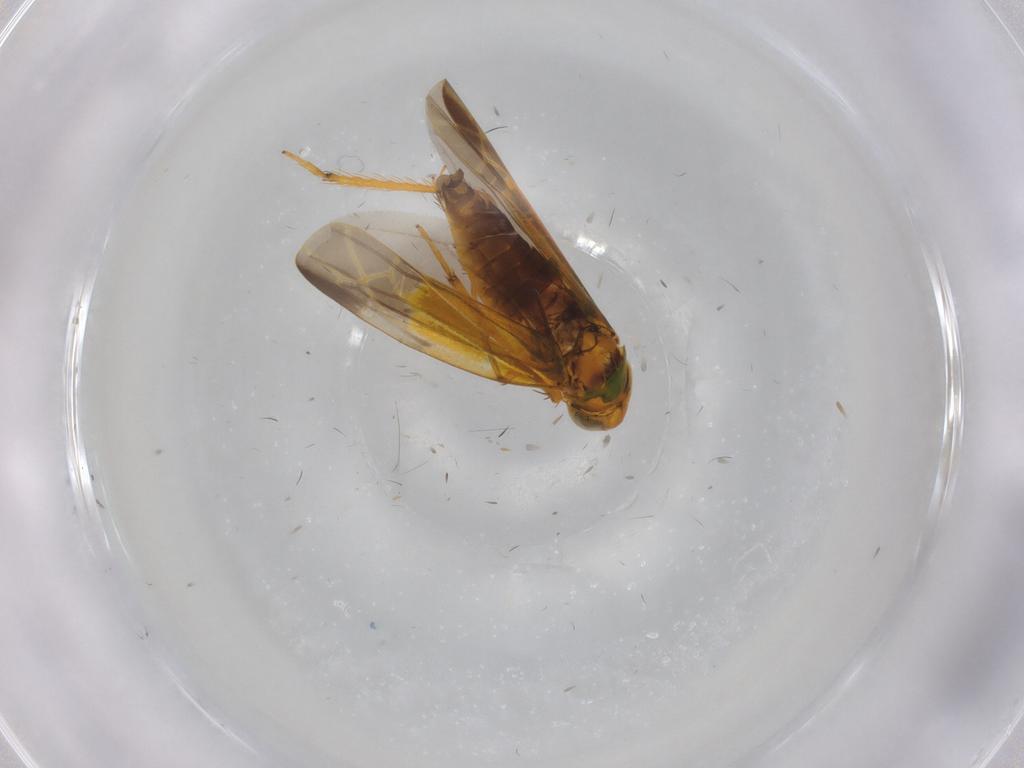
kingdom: Animalia
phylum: Arthropoda
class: Insecta
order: Hemiptera
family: Cicadellidae
